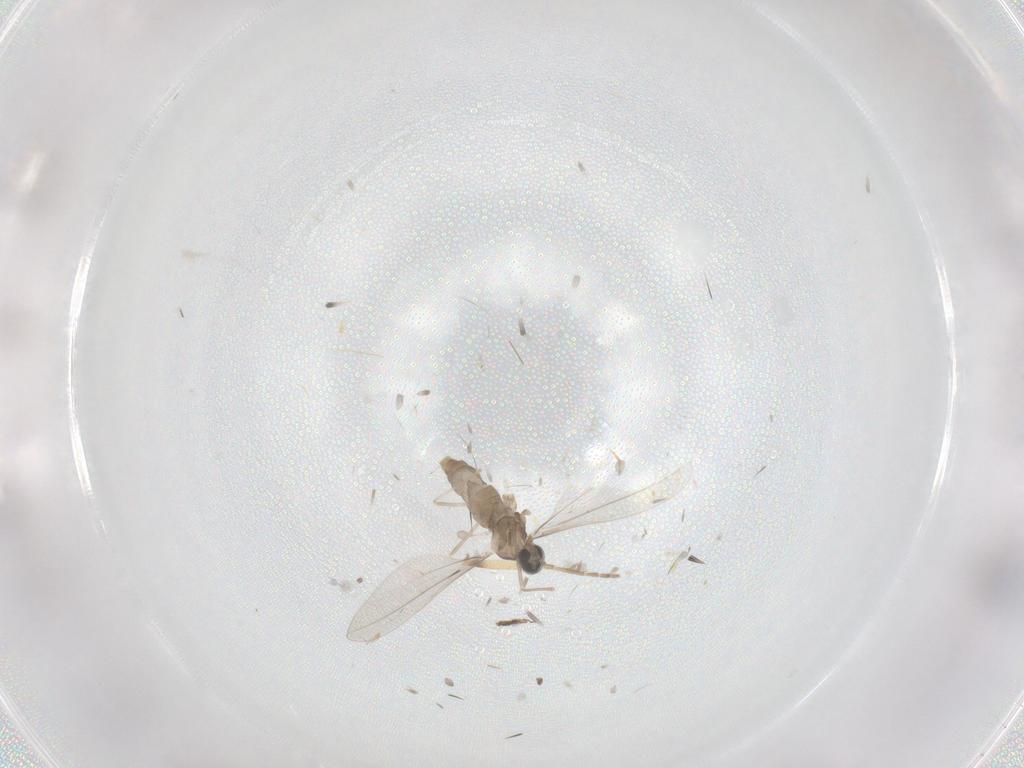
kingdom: Animalia
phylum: Arthropoda
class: Insecta
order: Diptera
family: Ceratopogonidae
